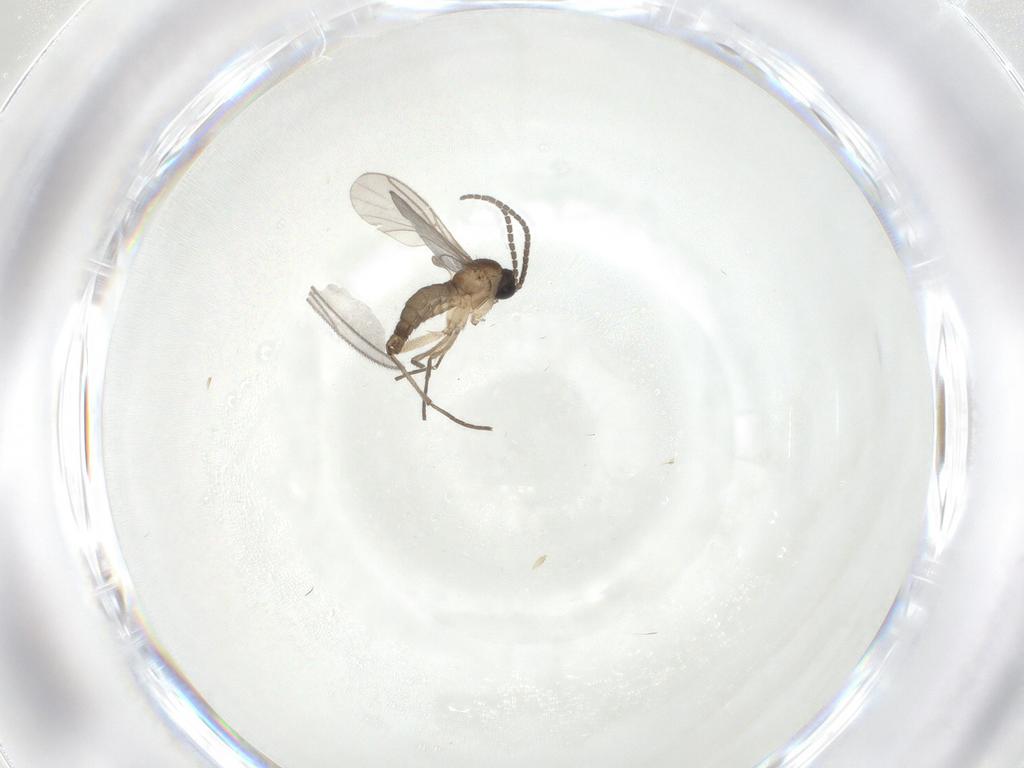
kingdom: Animalia
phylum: Arthropoda
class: Insecta
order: Diptera
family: Sciaridae
